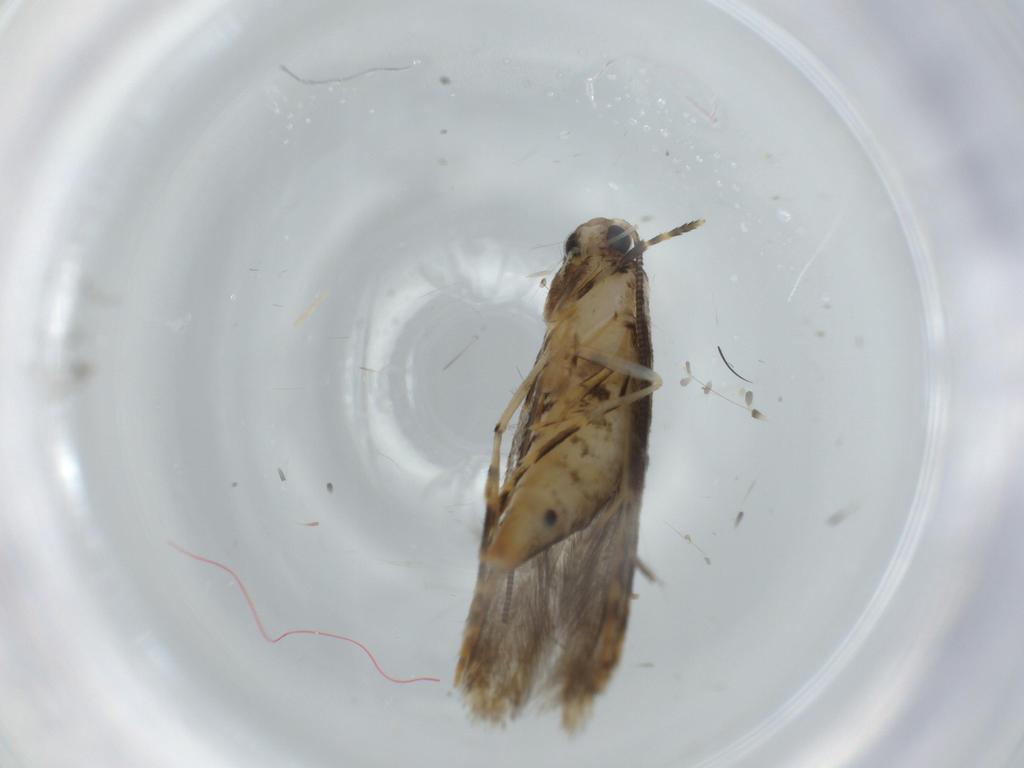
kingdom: Animalia
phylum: Arthropoda
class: Insecta
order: Lepidoptera
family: Tineidae
